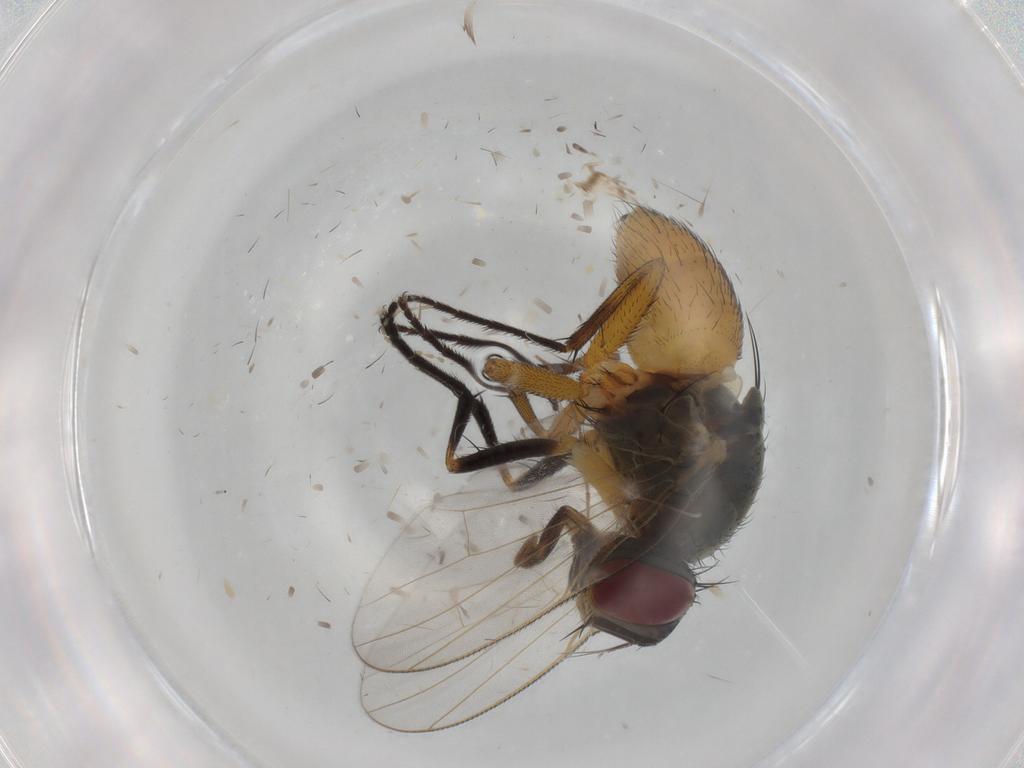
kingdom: Animalia
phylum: Arthropoda
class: Insecta
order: Diptera
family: Muscidae
